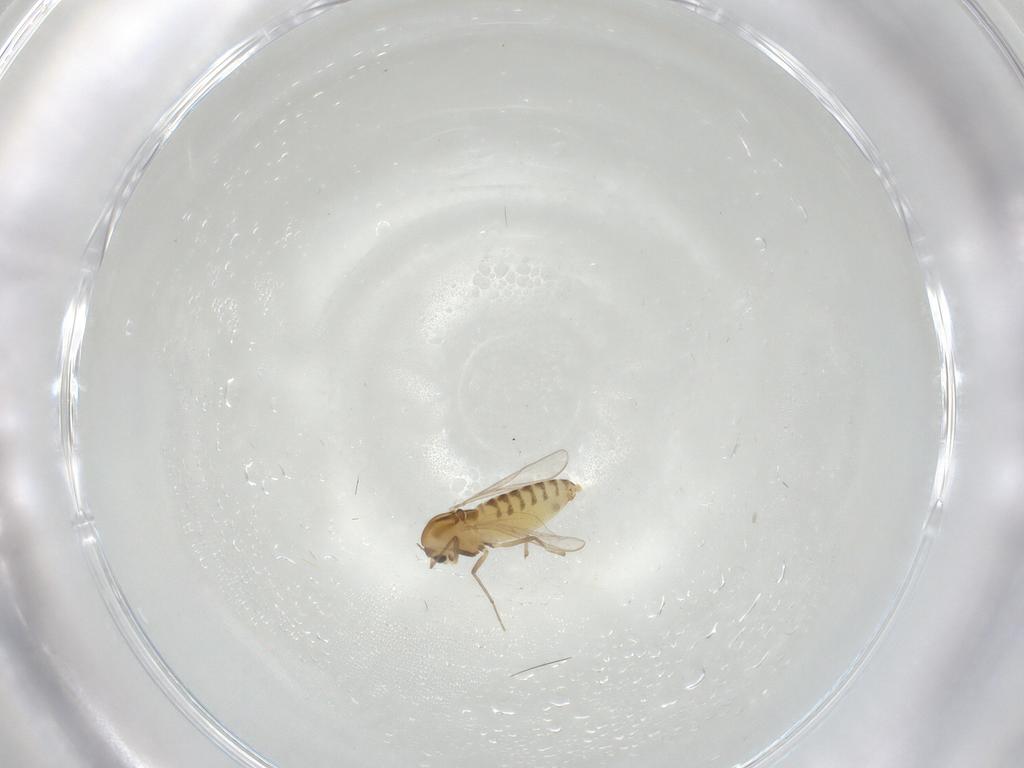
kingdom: Animalia
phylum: Arthropoda
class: Insecta
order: Diptera
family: Chironomidae
